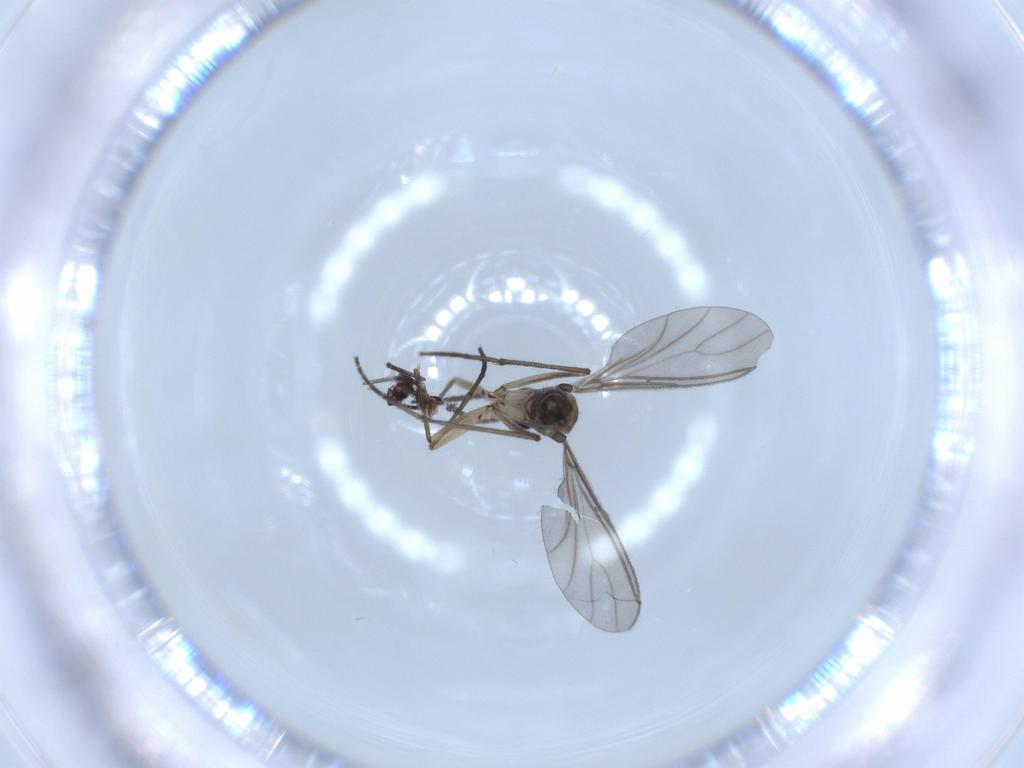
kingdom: Animalia
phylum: Arthropoda
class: Insecta
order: Diptera
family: Sciaridae
